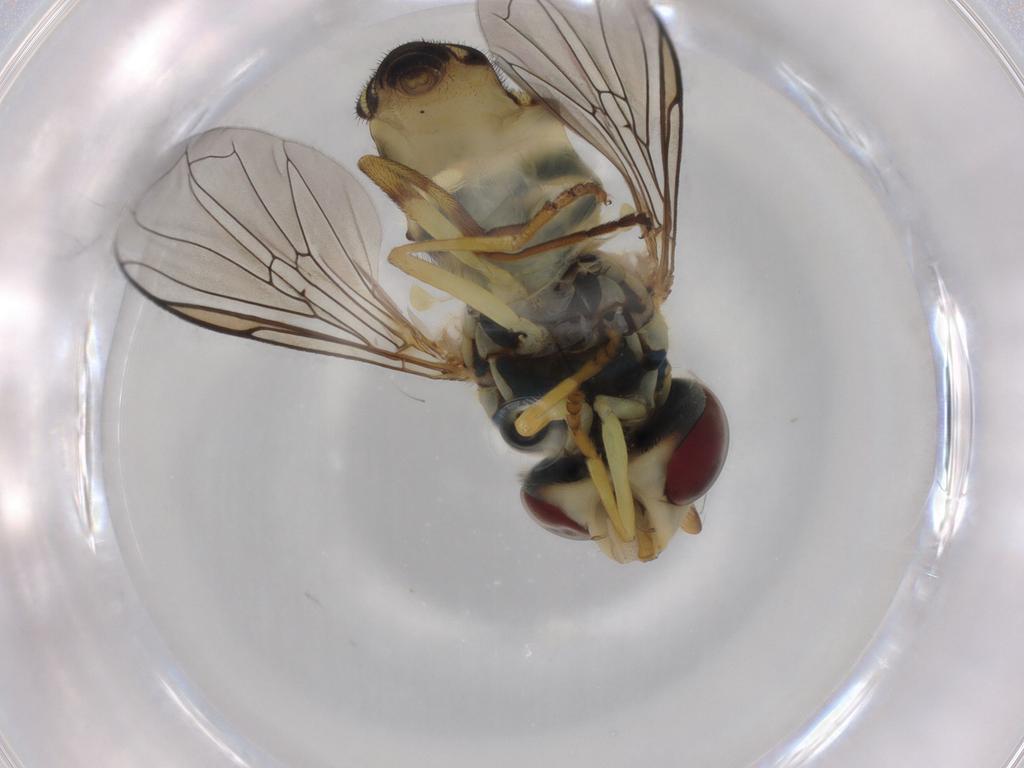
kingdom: Animalia
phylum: Arthropoda
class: Insecta
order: Diptera
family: Syrphidae
